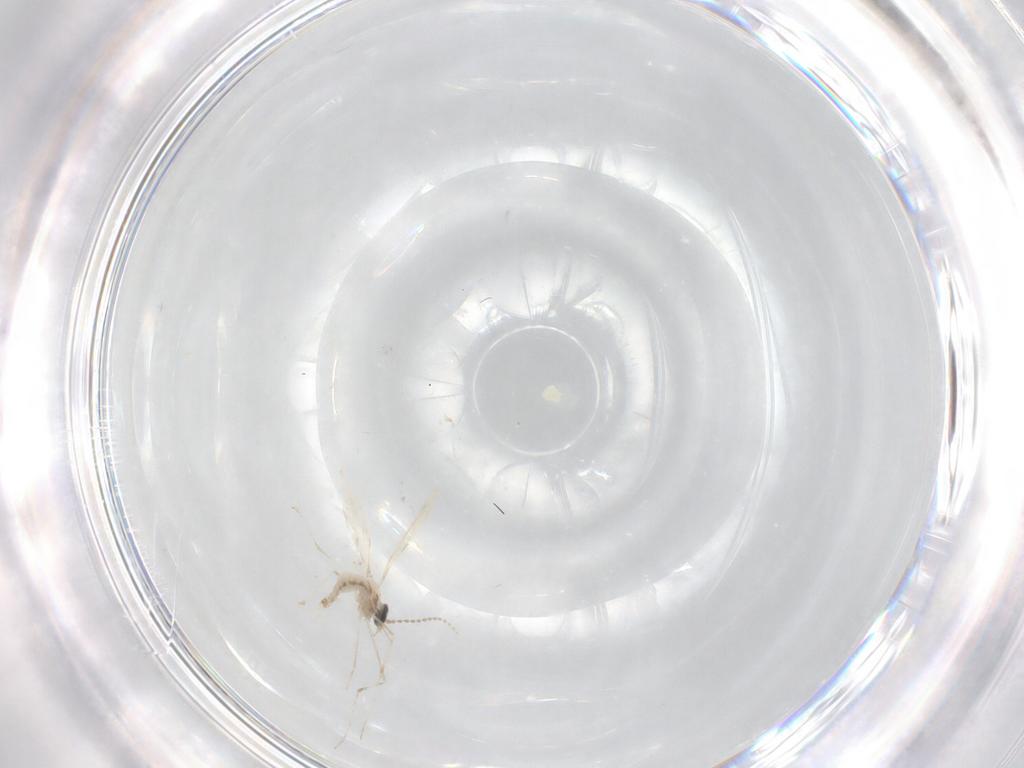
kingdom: Animalia
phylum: Arthropoda
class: Insecta
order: Diptera
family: Cecidomyiidae
